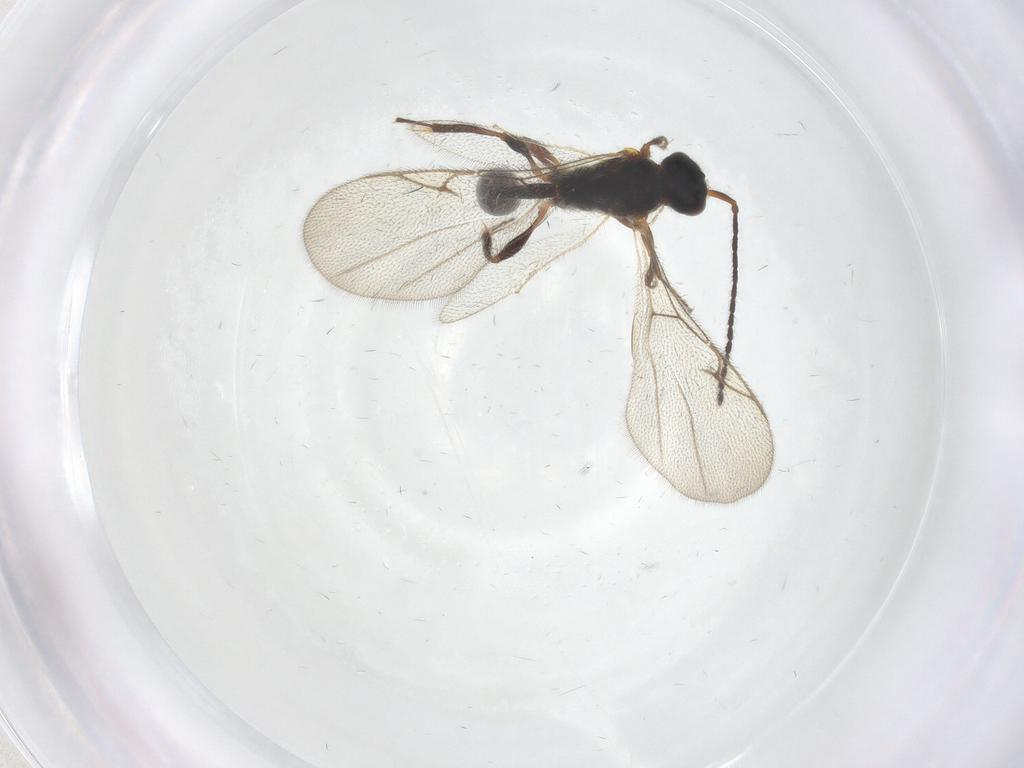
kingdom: Animalia
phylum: Arthropoda
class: Insecta
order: Hymenoptera
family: Diapriidae
